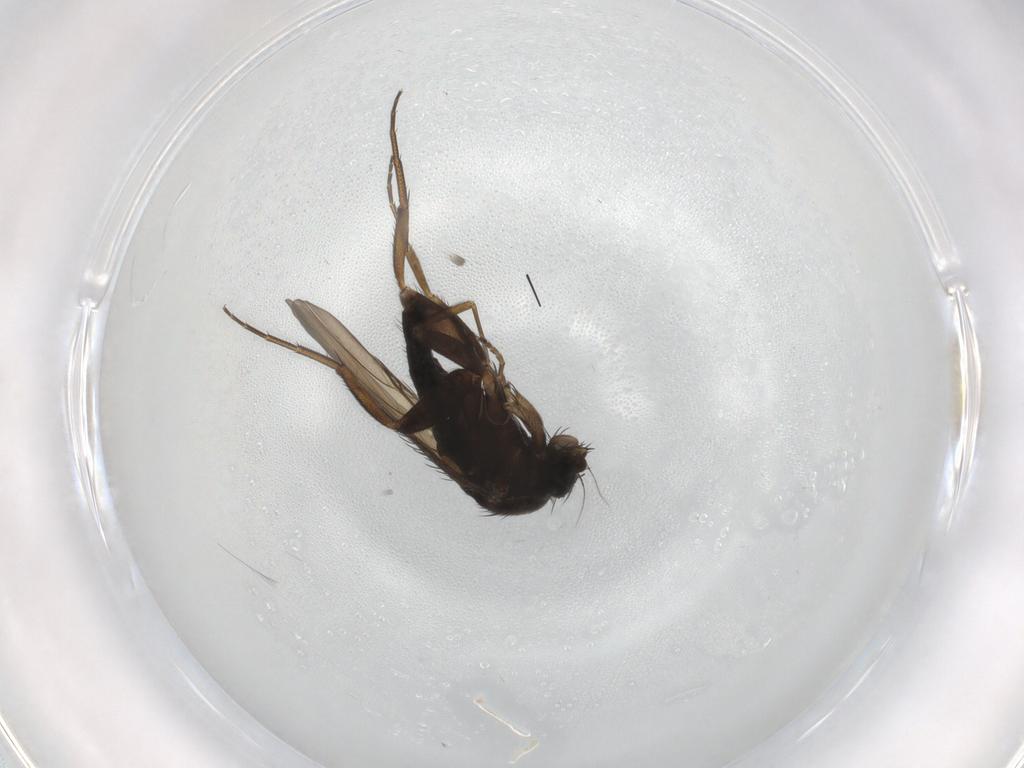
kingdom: Animalia
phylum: Arthropoda
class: Insecta
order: Diptera
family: Phoridae
